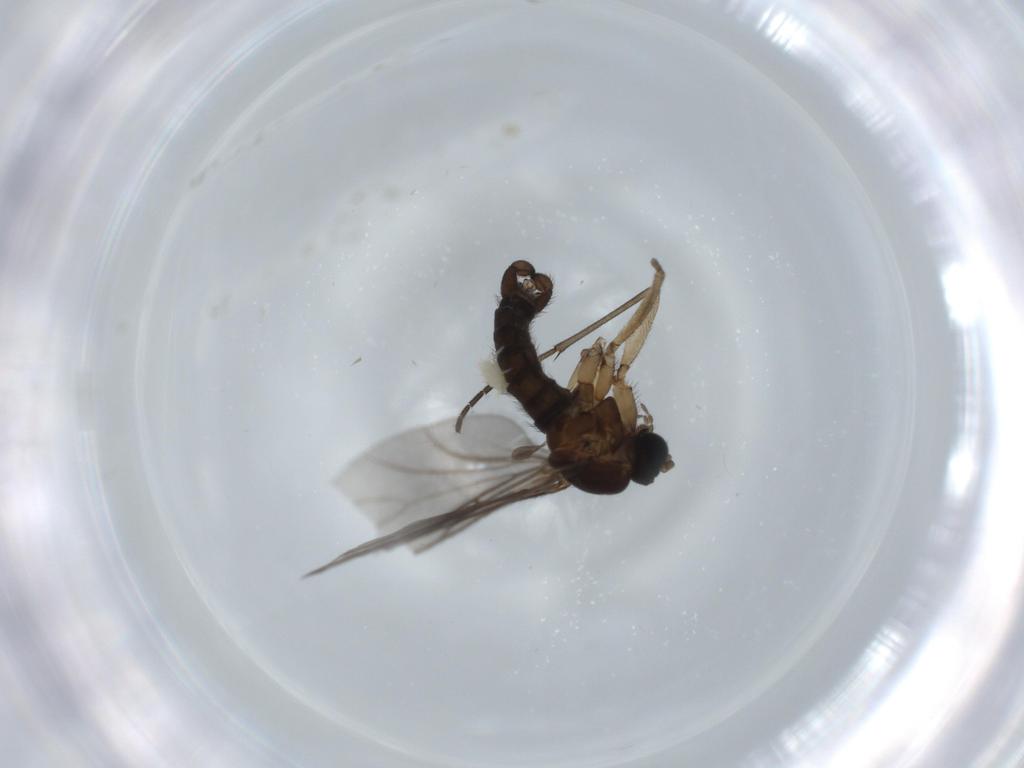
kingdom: Animalia
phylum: Arthropoda
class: Insecta
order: Diptera
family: Sciaridae
